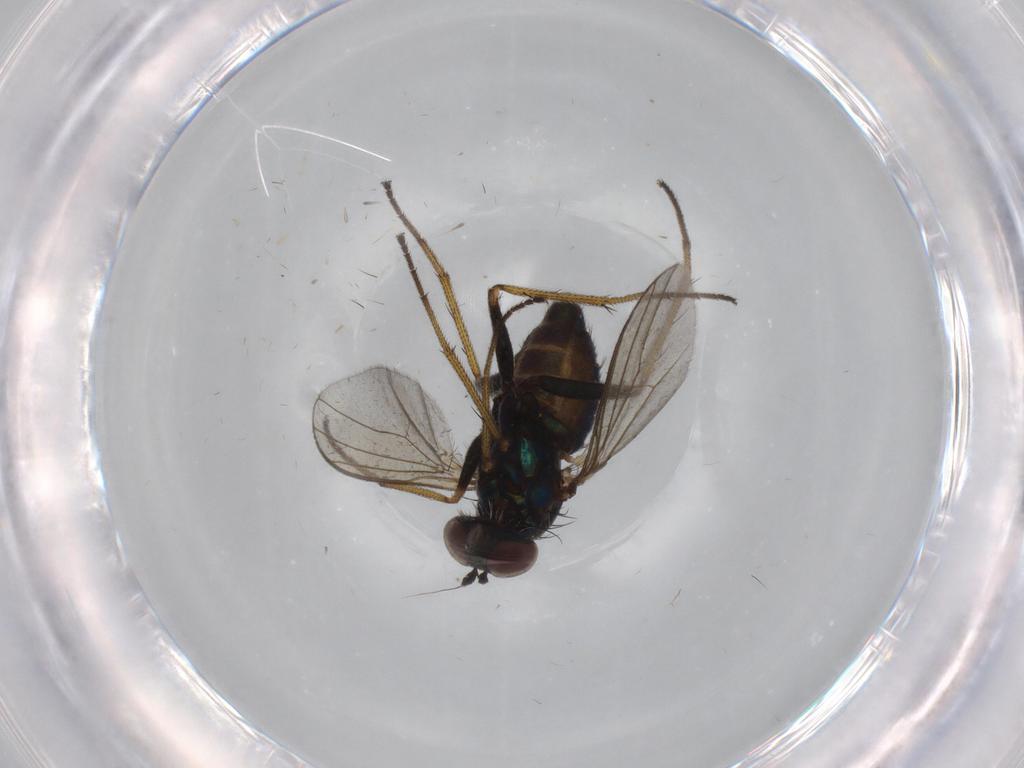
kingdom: Animalia
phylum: Arthropoda
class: Insecta
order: Diptera
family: Dolichopodidae
